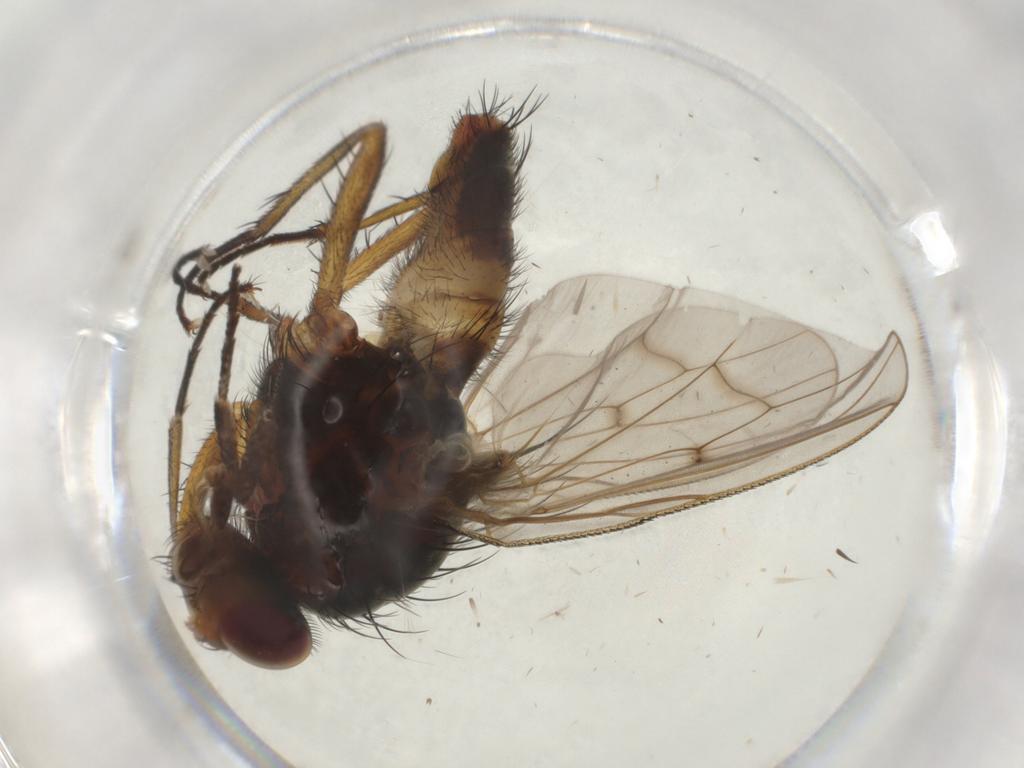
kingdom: Animalia
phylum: Arthropoda
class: Insecta
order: Diptera
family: Anthomyiidae
